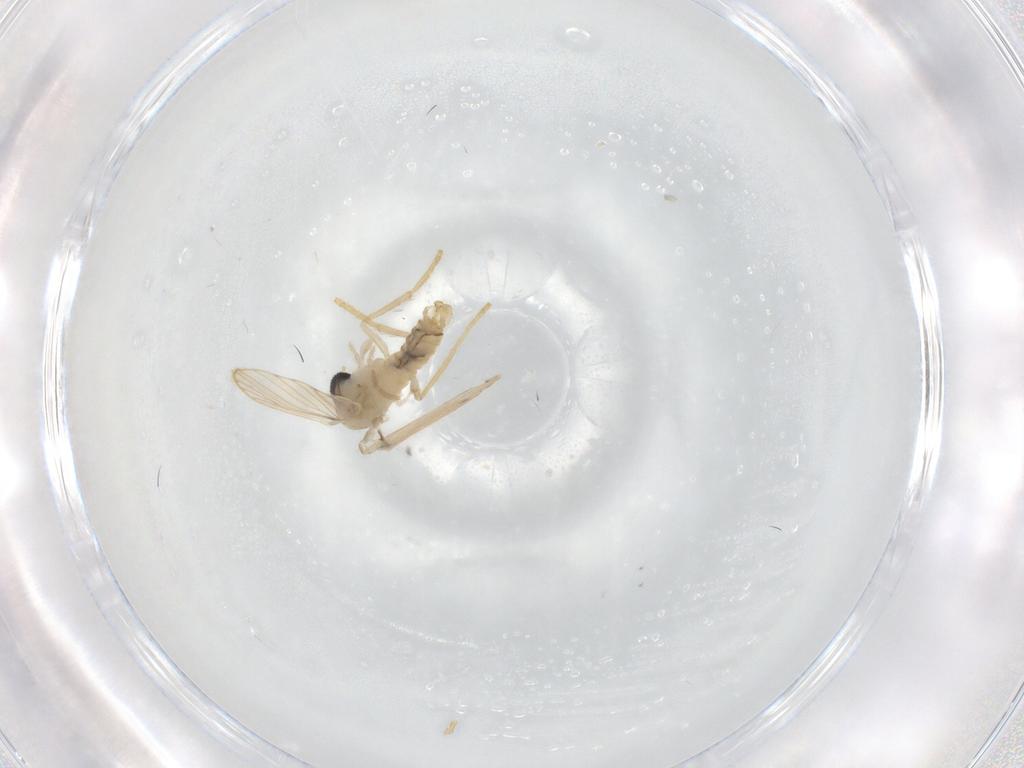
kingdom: Animalia
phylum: Arthropoda
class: Insecta
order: Diptera
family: Psychodidae
